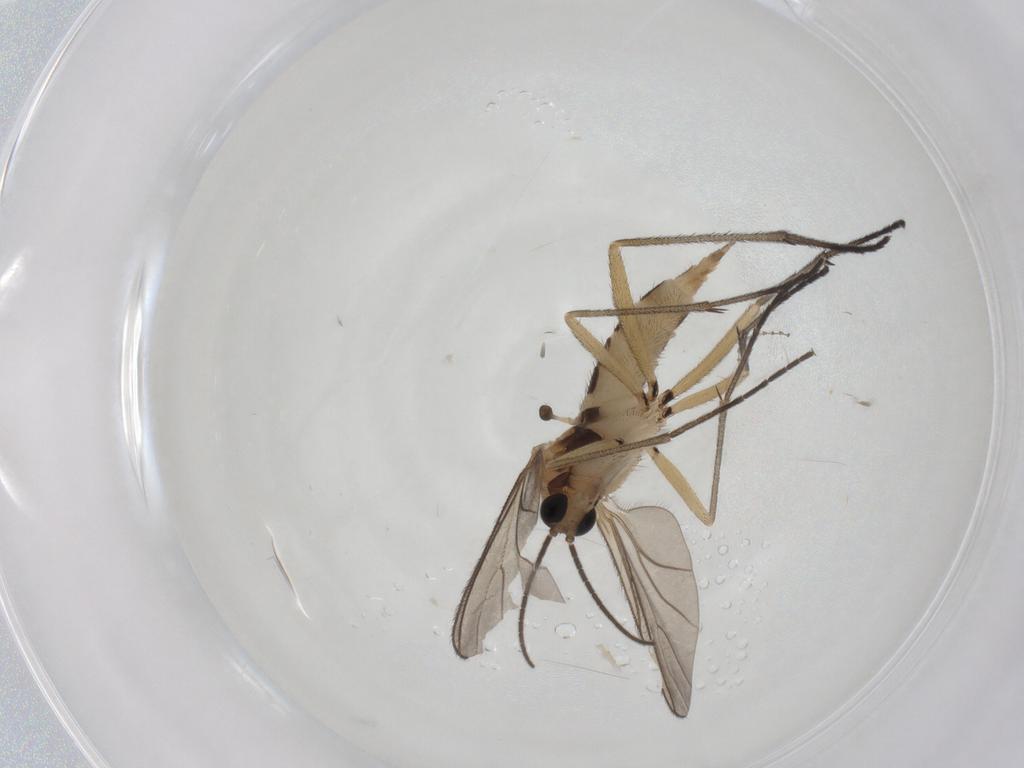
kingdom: Animalia
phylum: Arthropoda
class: Insecta
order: Diptera
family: Sciaridae
